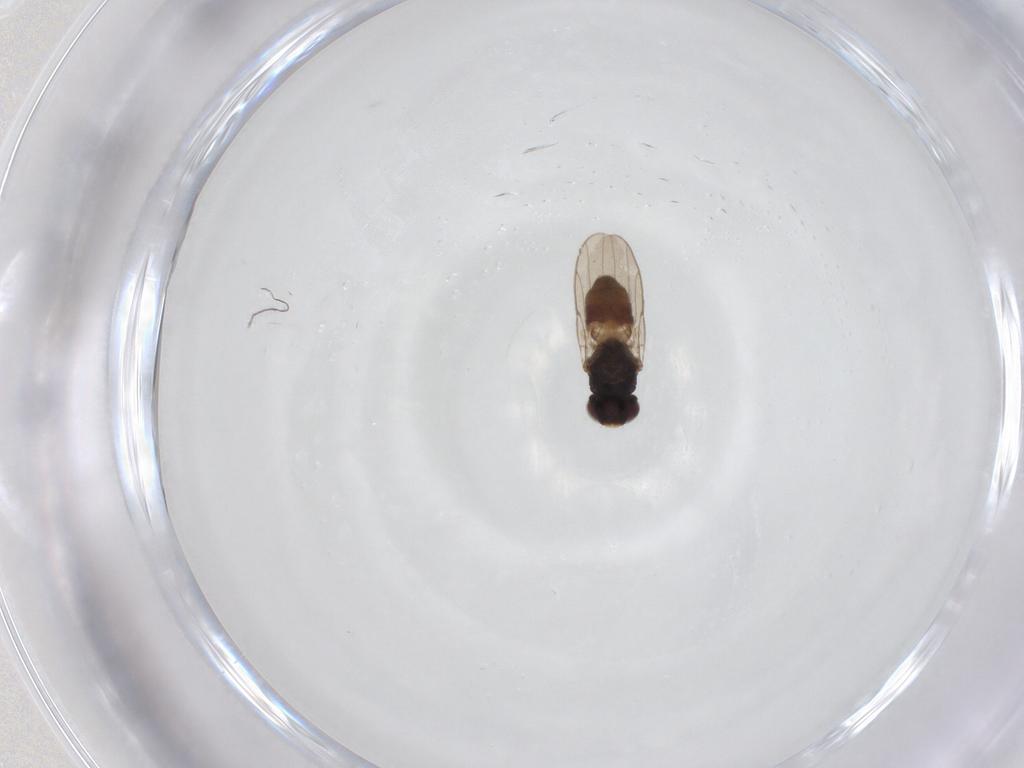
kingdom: Animalia
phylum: Arthropoda
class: Insecta
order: Diptera
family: Chloropidae
